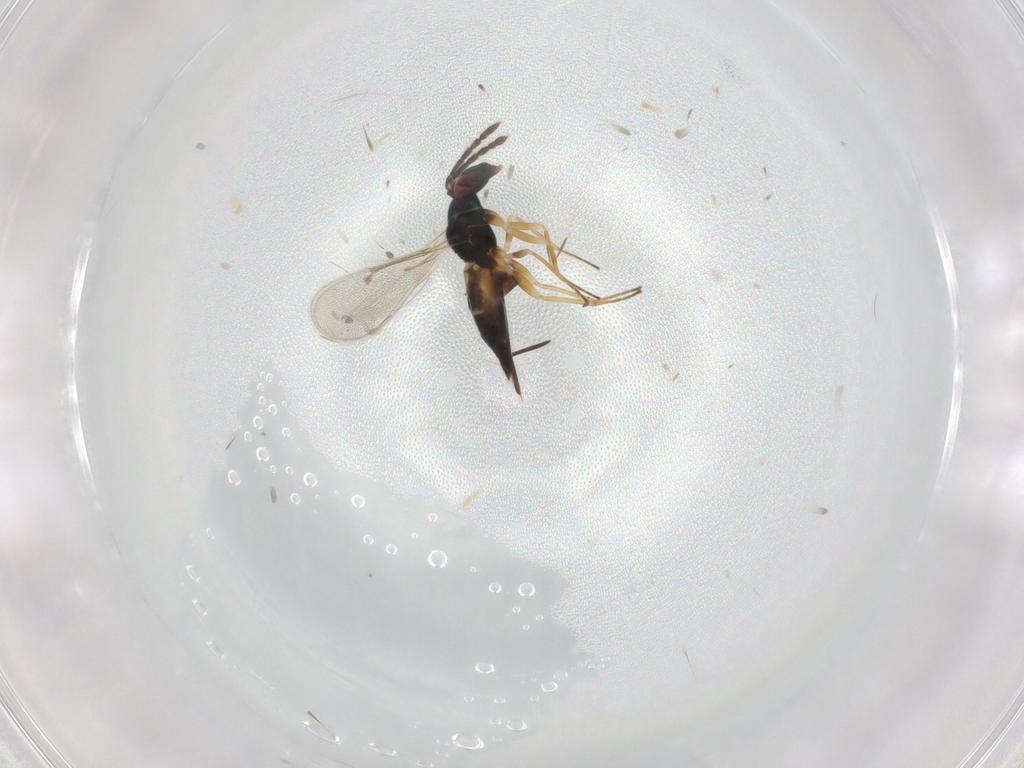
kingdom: Animalia
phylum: Arthropoda
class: Insecta
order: Hymenoptera
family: Eulophidae
